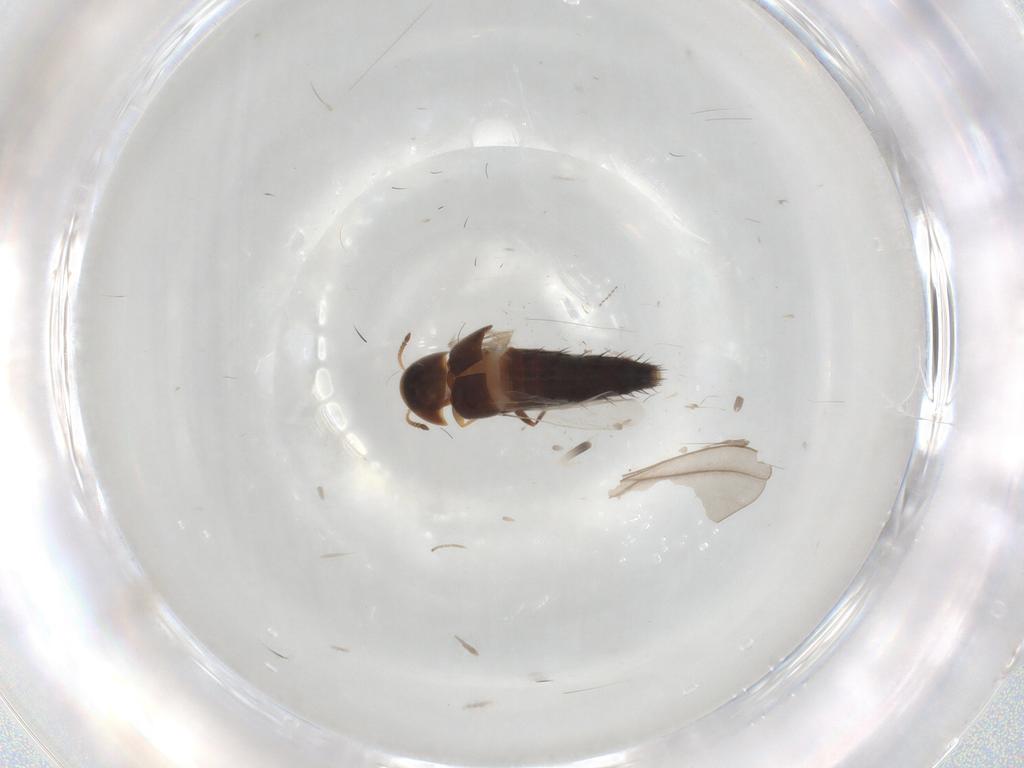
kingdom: Animalia
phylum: Arthropoda
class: Insecta
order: Coleoptera
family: Staphylinidae
